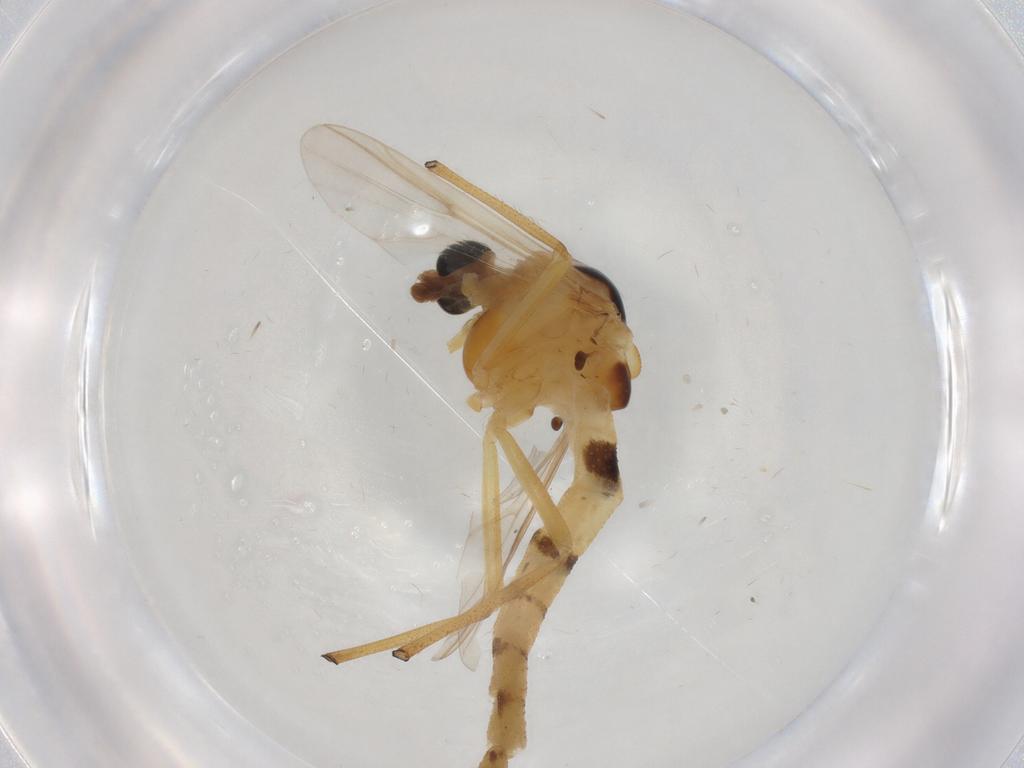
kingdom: Animalia
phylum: Arthropoda
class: Insecta
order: Diptera
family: Chironomidae
